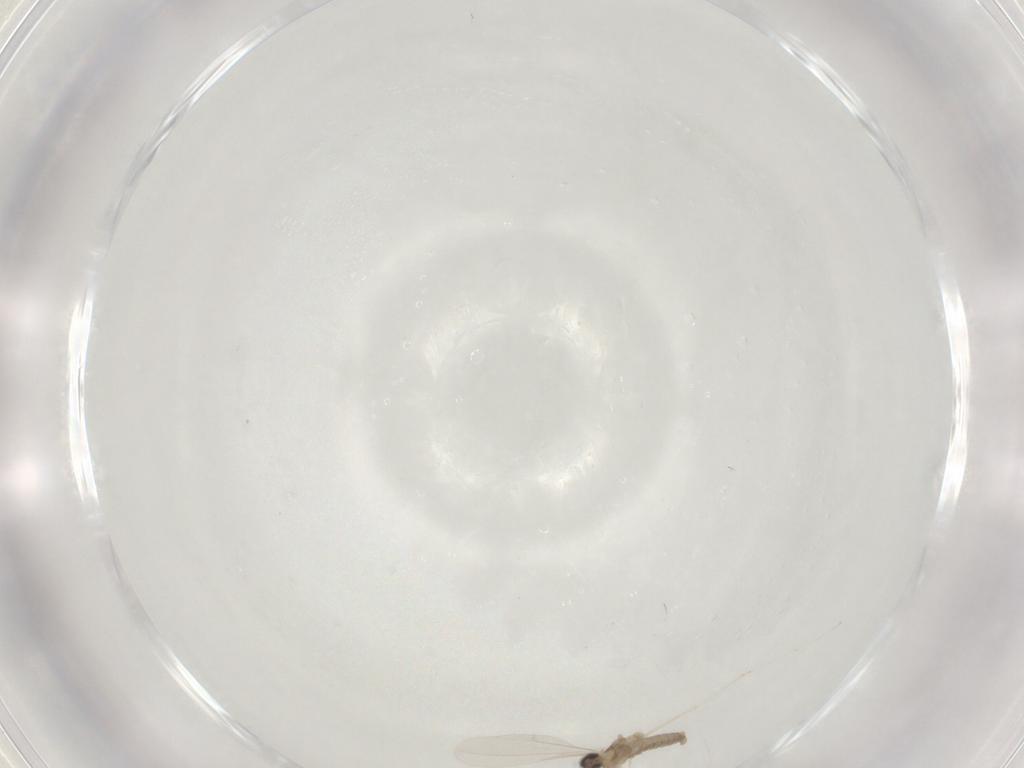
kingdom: Animalia
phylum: Arthropoda
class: Insecta
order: Diptera
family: Cecidomyiidae
